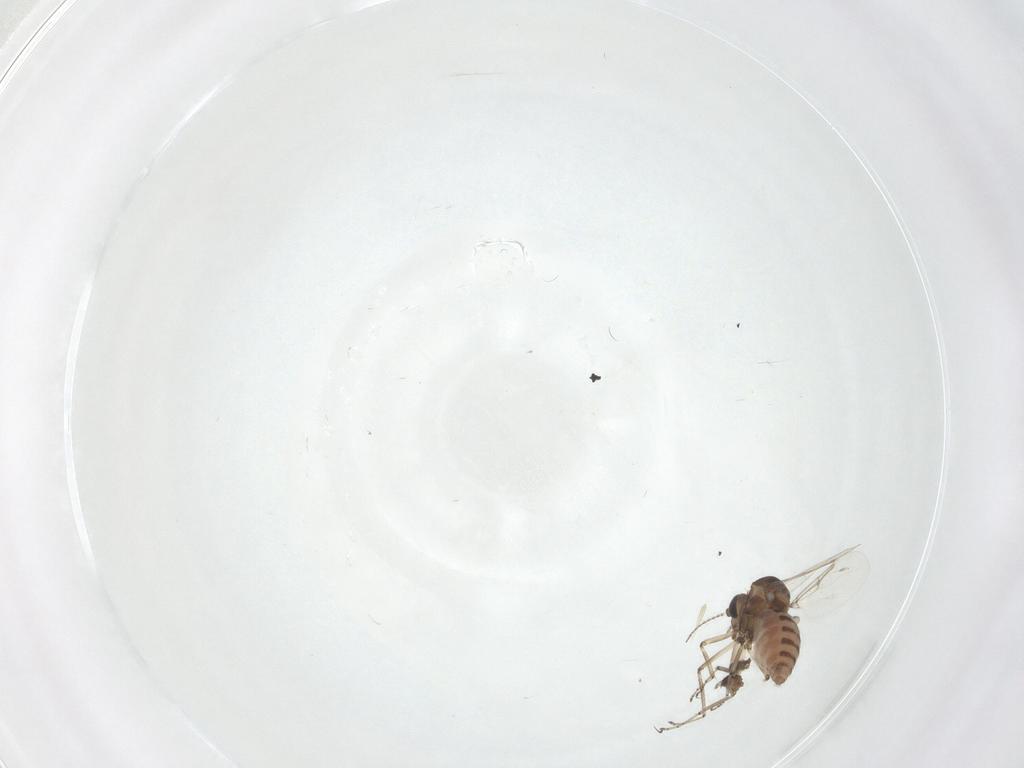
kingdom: Animalia
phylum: Arthropoda
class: Insecta
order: Diptera
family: Ceratopogonidae
